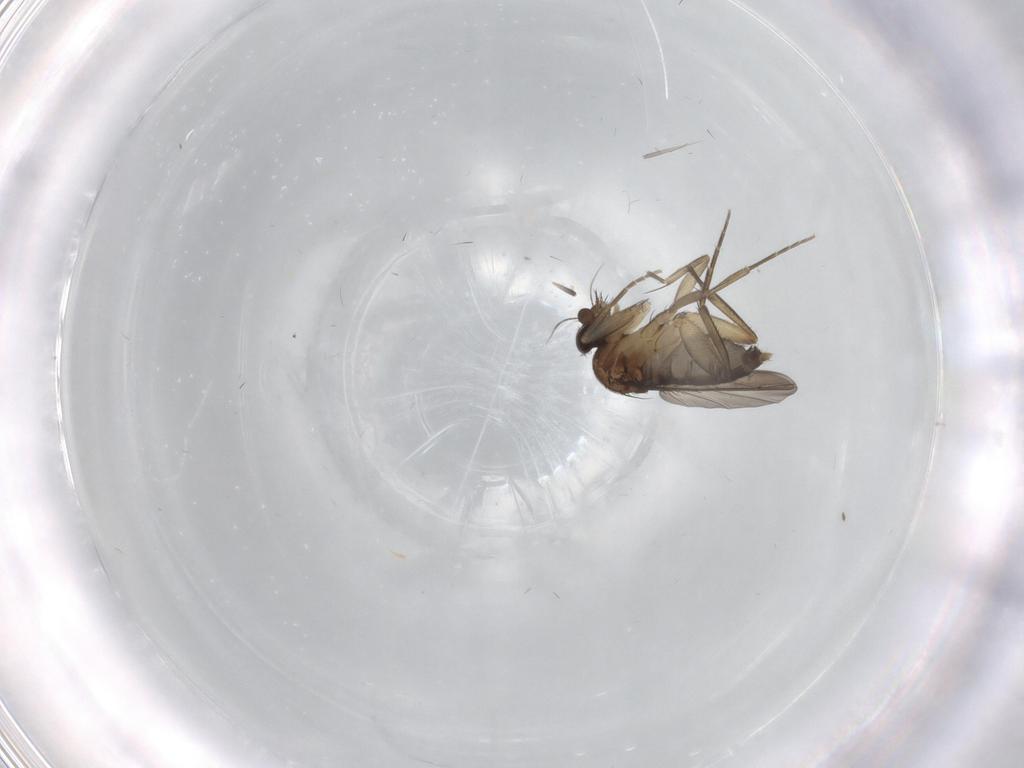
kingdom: Animalia
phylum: Arthropoda
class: Insecta
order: Diptera
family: Phoridae
